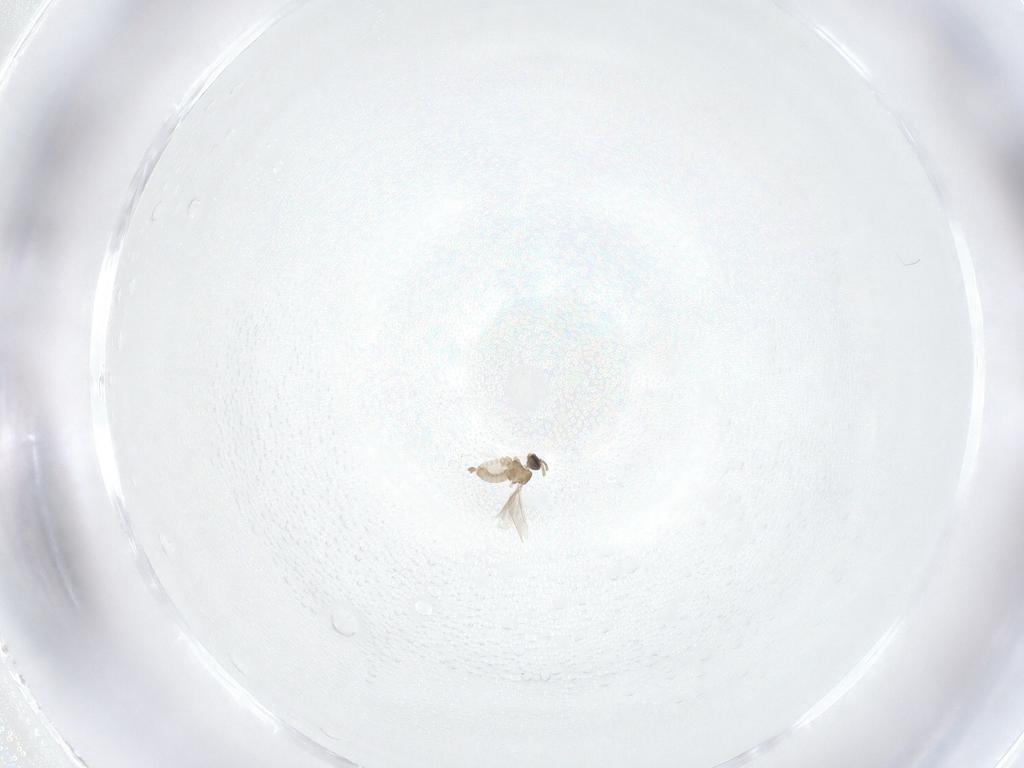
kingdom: Animalia
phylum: Arthropoda
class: Insecta
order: Diptera
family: Cecidomyiidae
